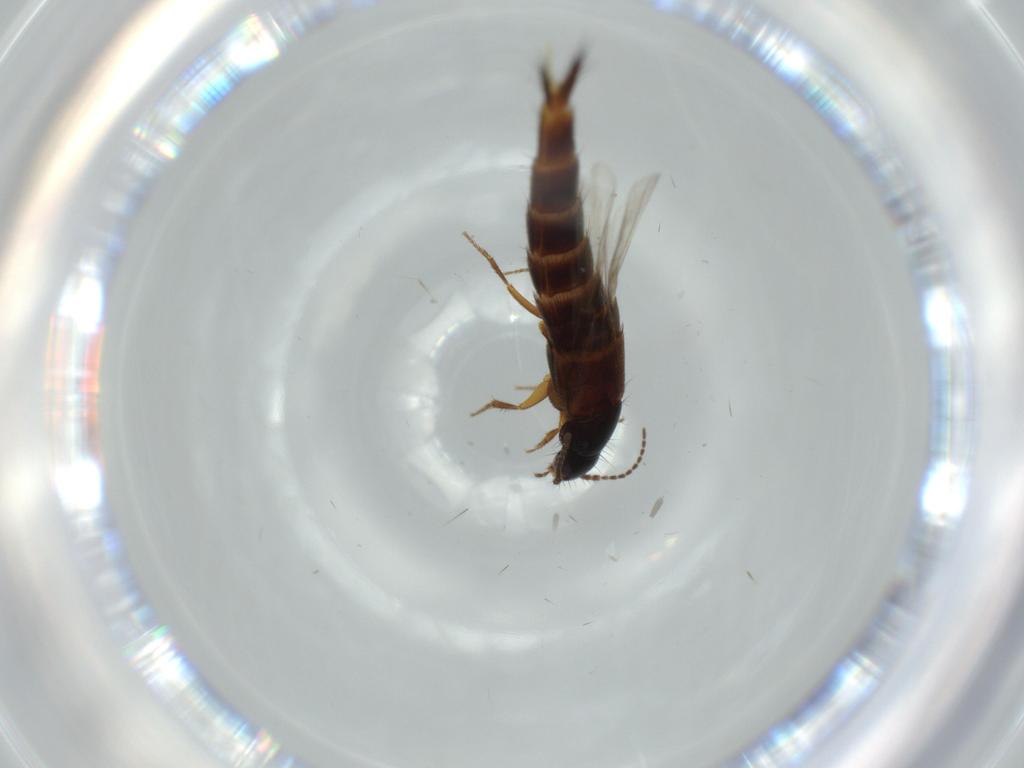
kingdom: Animalia
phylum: Arthropoda
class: Insecta
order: Coleoptera
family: Staphylinidae
